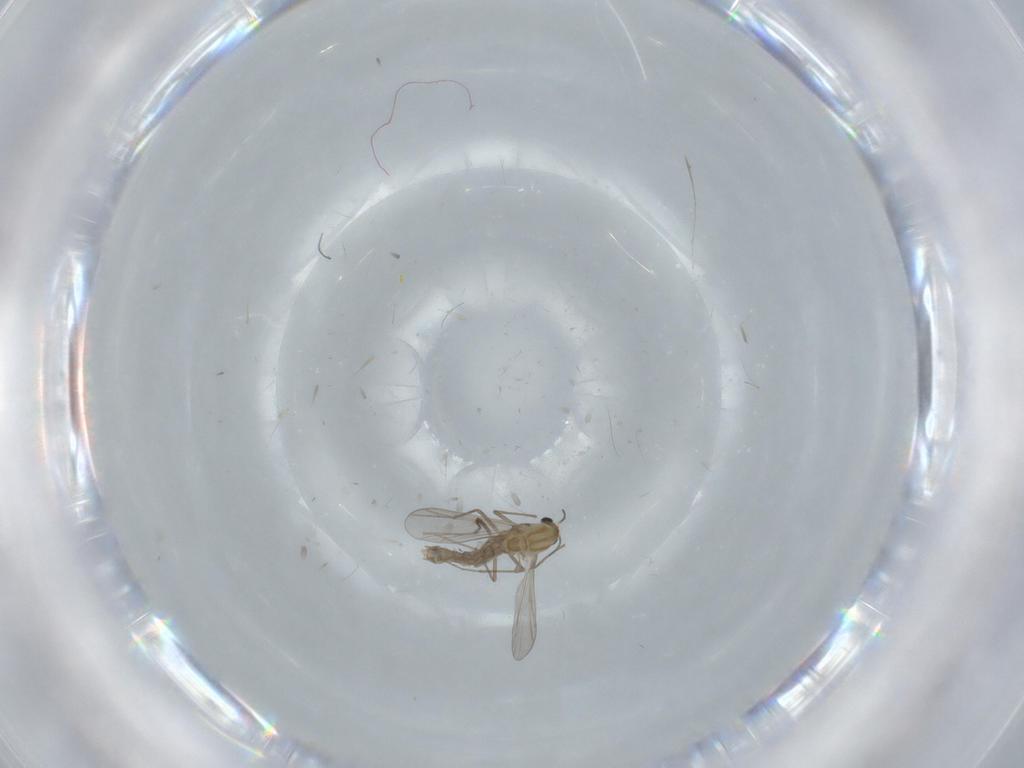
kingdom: Animalia
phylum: Arthropoda
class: Insecta
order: Diptera
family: Chironomidae
